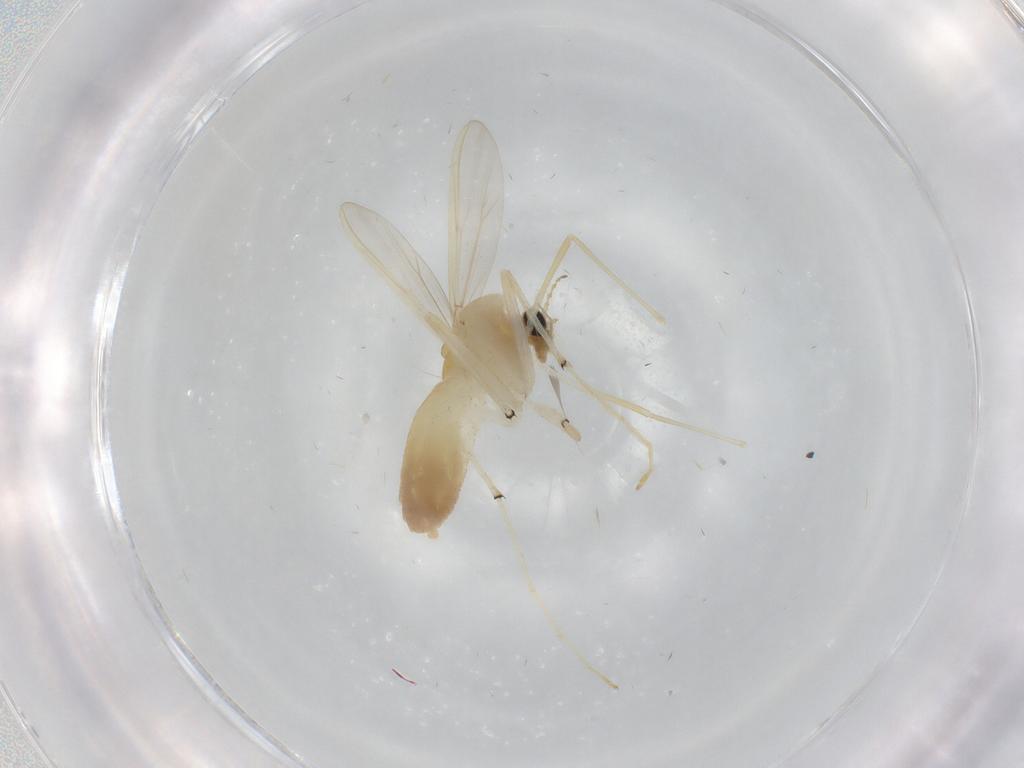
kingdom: Animalia
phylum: Arthropoda
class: Insecta
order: Diptera
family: Chironomidae
